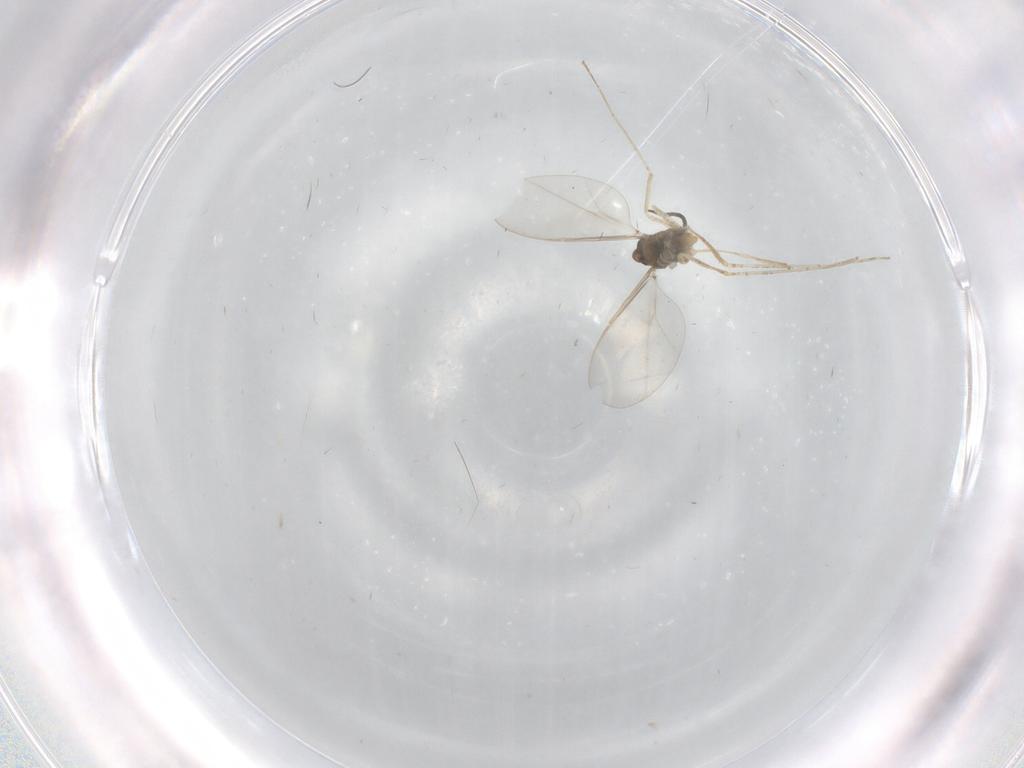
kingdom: Animalia
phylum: Arthropoda
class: Insecta
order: Diptera
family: Cecidomyiidae
